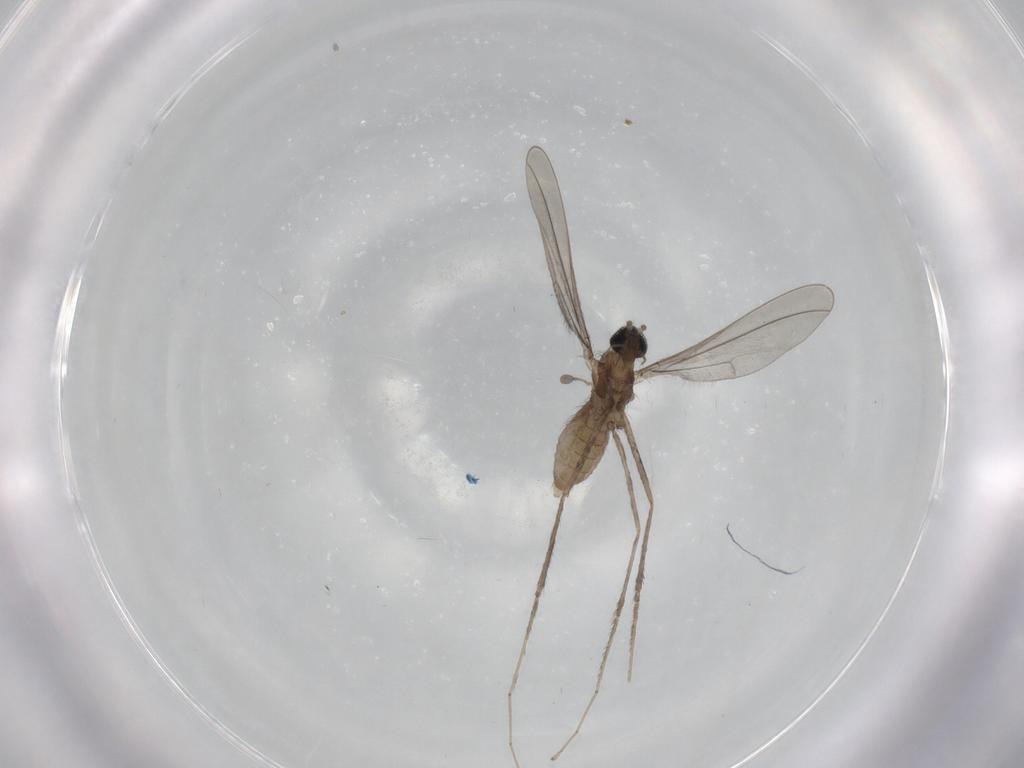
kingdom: Animalia
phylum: Arthropoda
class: Insecta
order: Diptera
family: Cecidomyiidae
